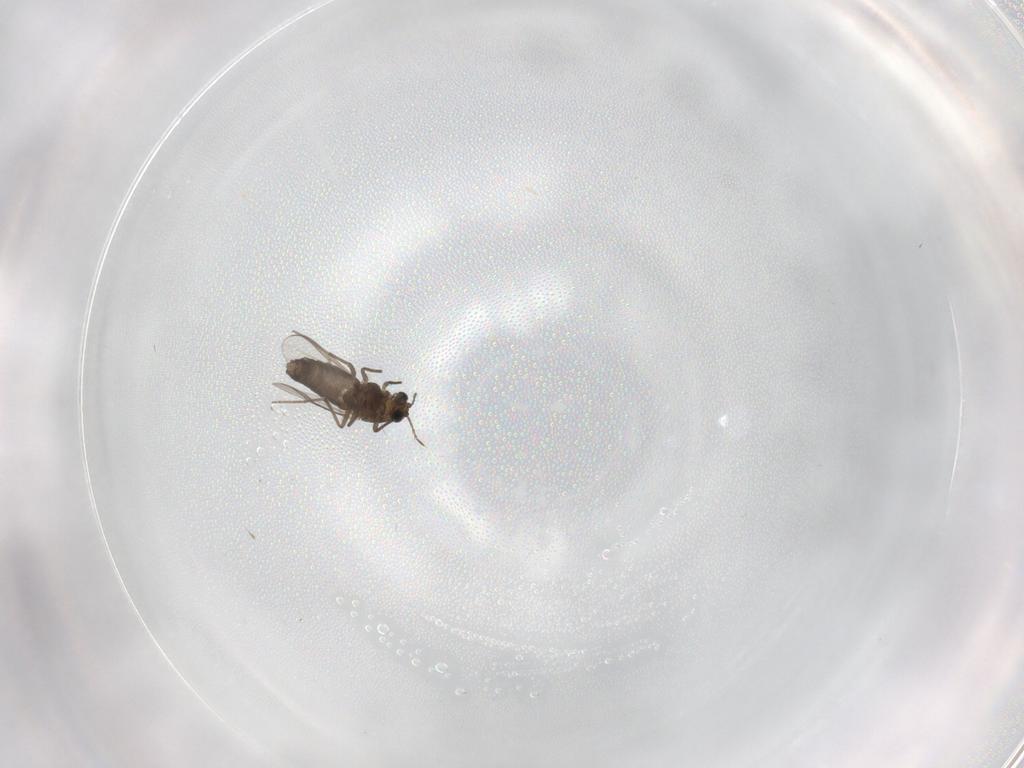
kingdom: Animalia
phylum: Arthropoda
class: Insecta
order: Diptera
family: Chironomidae
